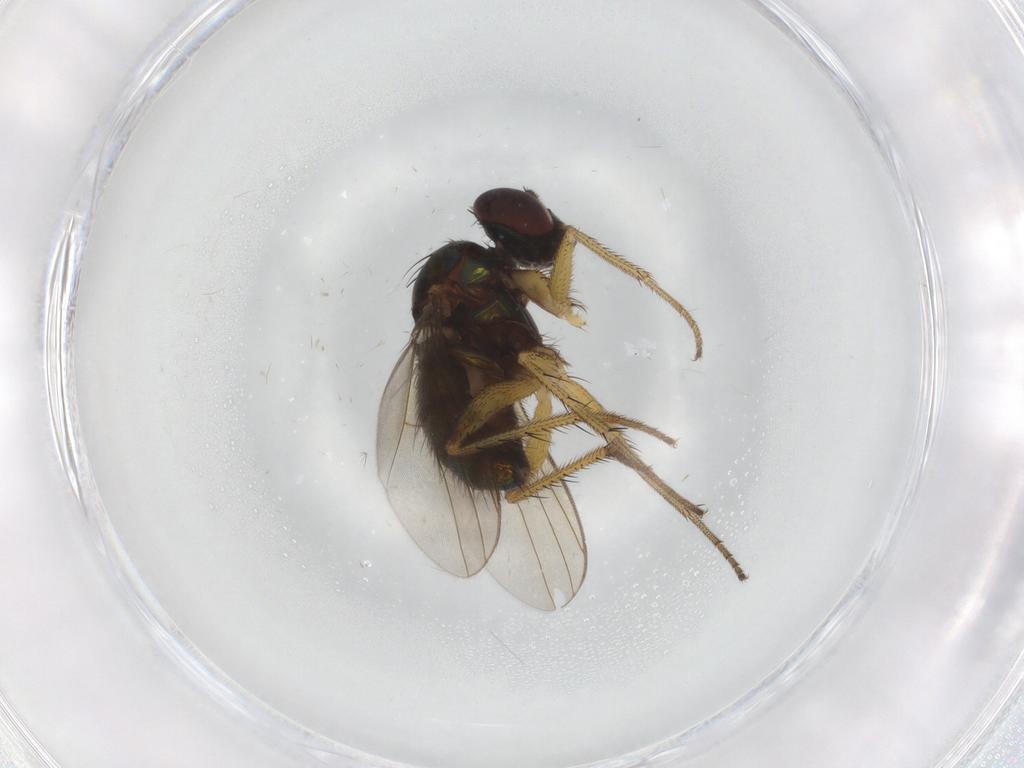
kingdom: Animalia
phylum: Arthropoda
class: Insecta
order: Diptera
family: Dolichopodidae
